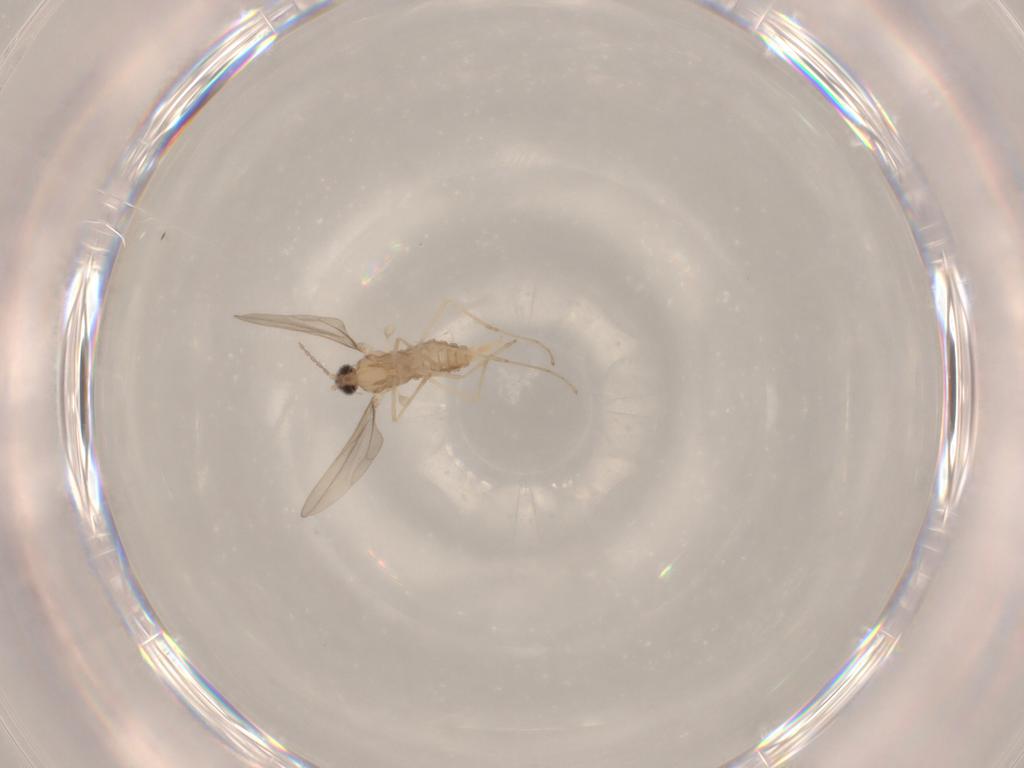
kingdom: Animalia
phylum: Arthropoda
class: Insecta
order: Diptera
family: Cecidomyiidae
